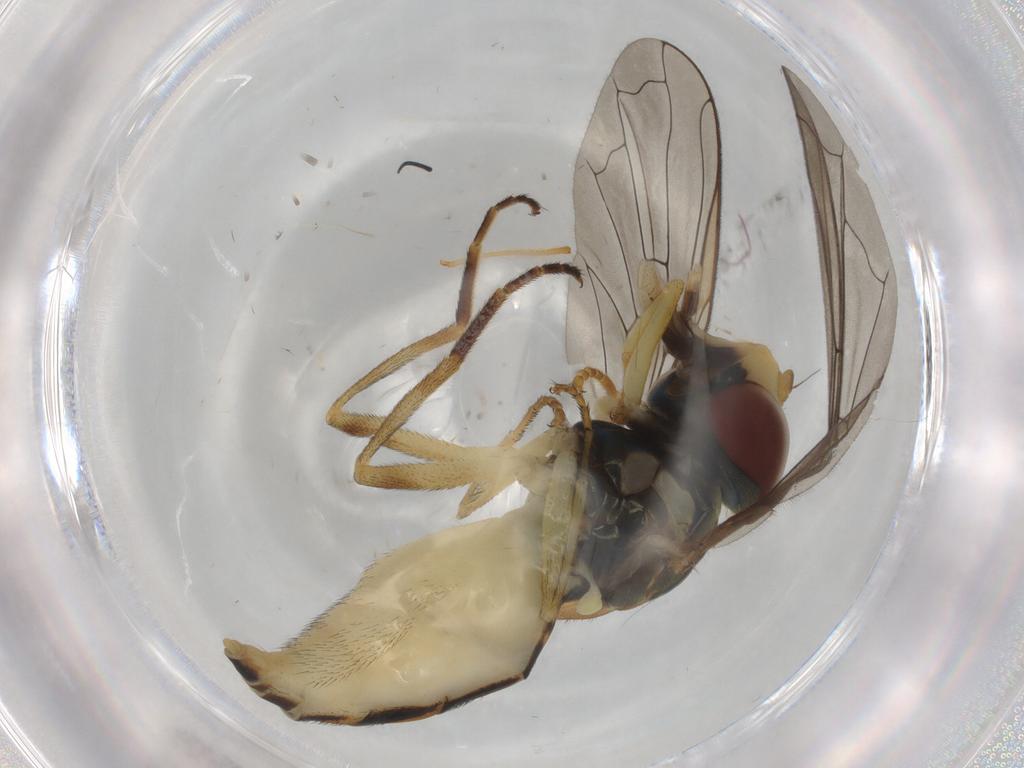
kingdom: Animalia
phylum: Arthropoda
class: Insecta
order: Diptera
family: Syrphidae
